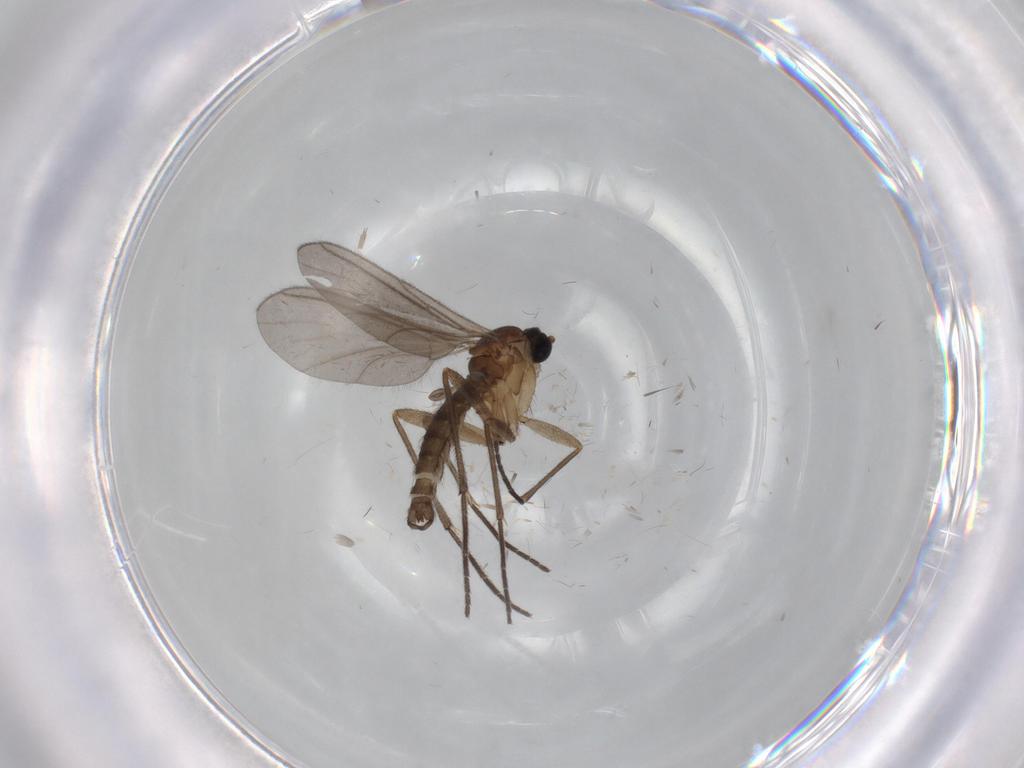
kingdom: Animalia
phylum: Arthropoda
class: Insecta
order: Diptera
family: Sciaridae
